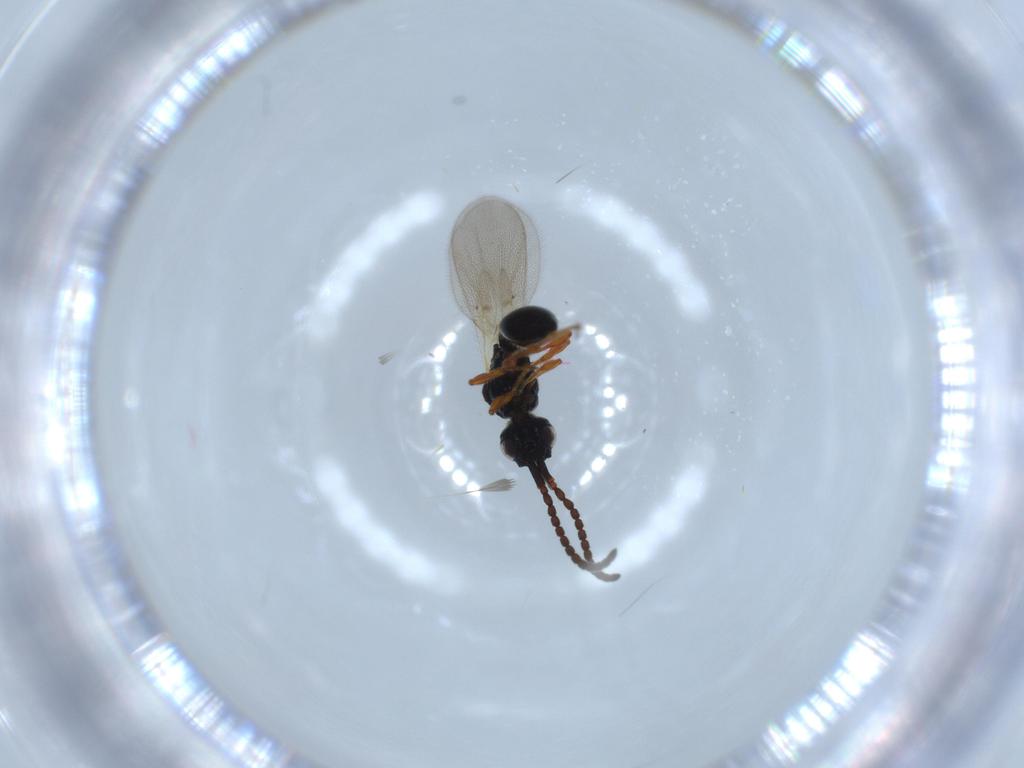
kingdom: Animalia
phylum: Arthropoda
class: Insecta
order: Hymenoptera
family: Diapriidae
